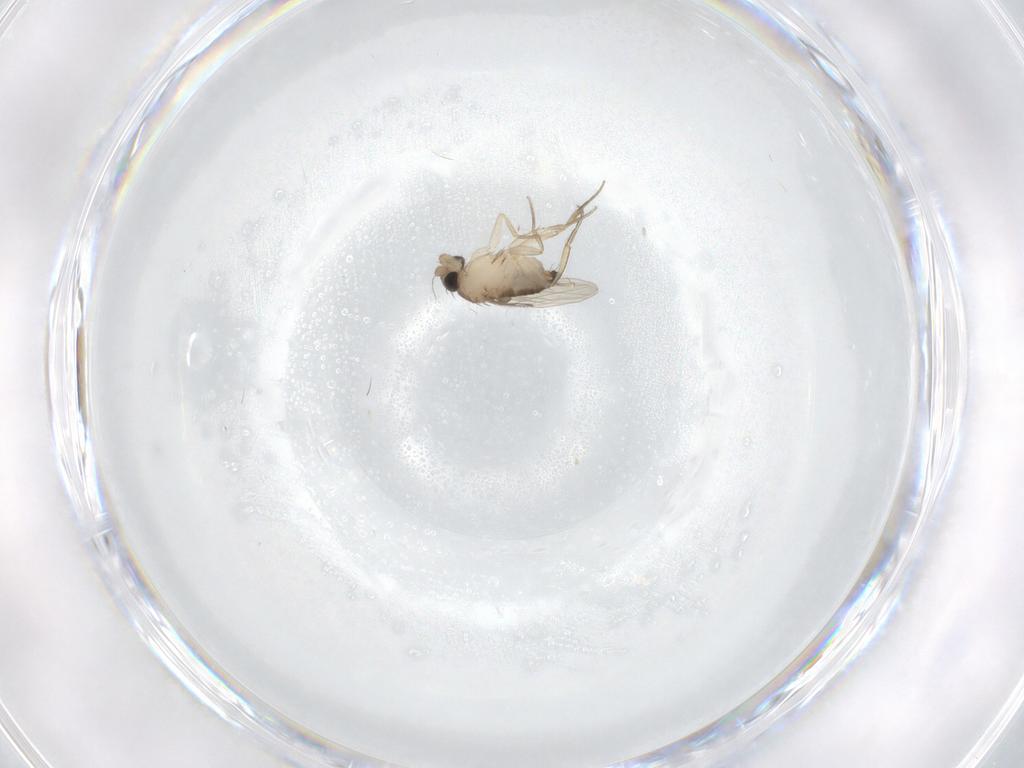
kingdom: Animalia
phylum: Arthropoda
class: Insecta
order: Diptera
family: Phoridae
